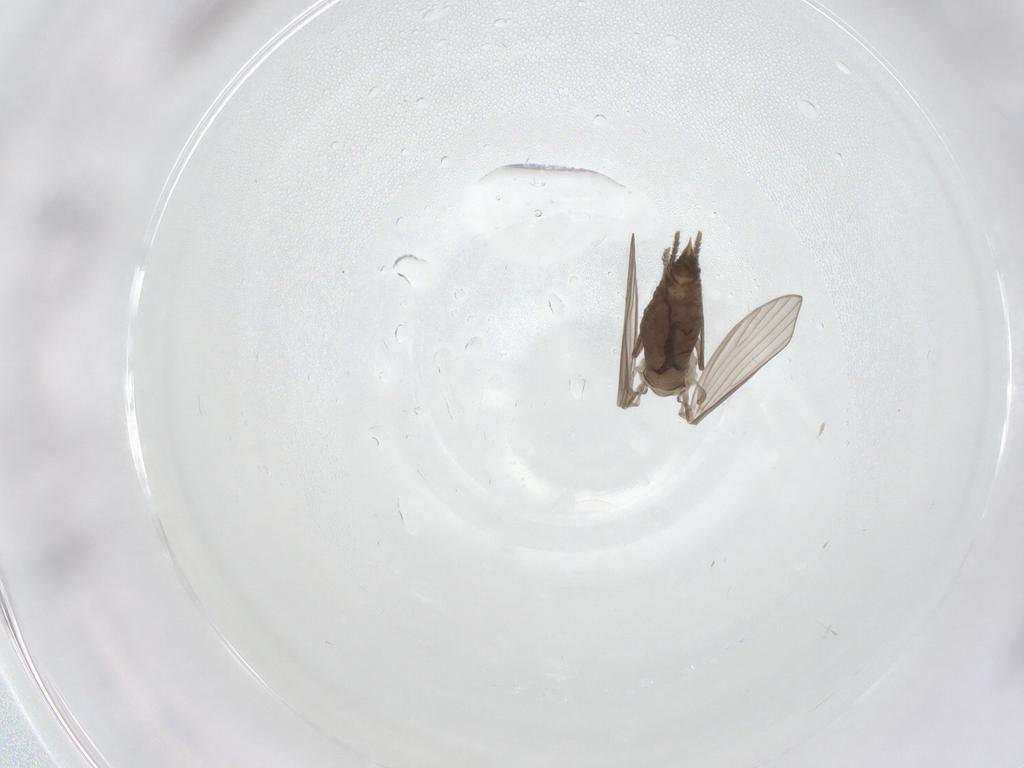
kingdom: Animalia
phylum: Arthropoda
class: Insecta
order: Diptera
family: Psychodidae
